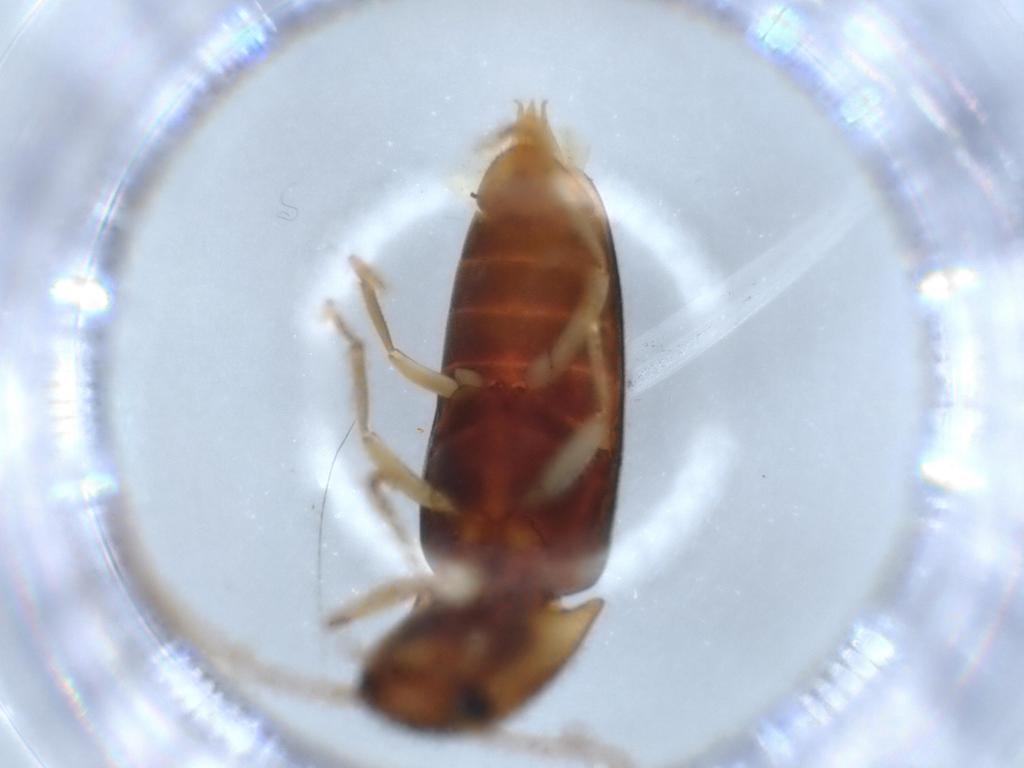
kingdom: Animalia
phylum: Arthropoda
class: Insecta
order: Coleoptera
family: Elateridae
